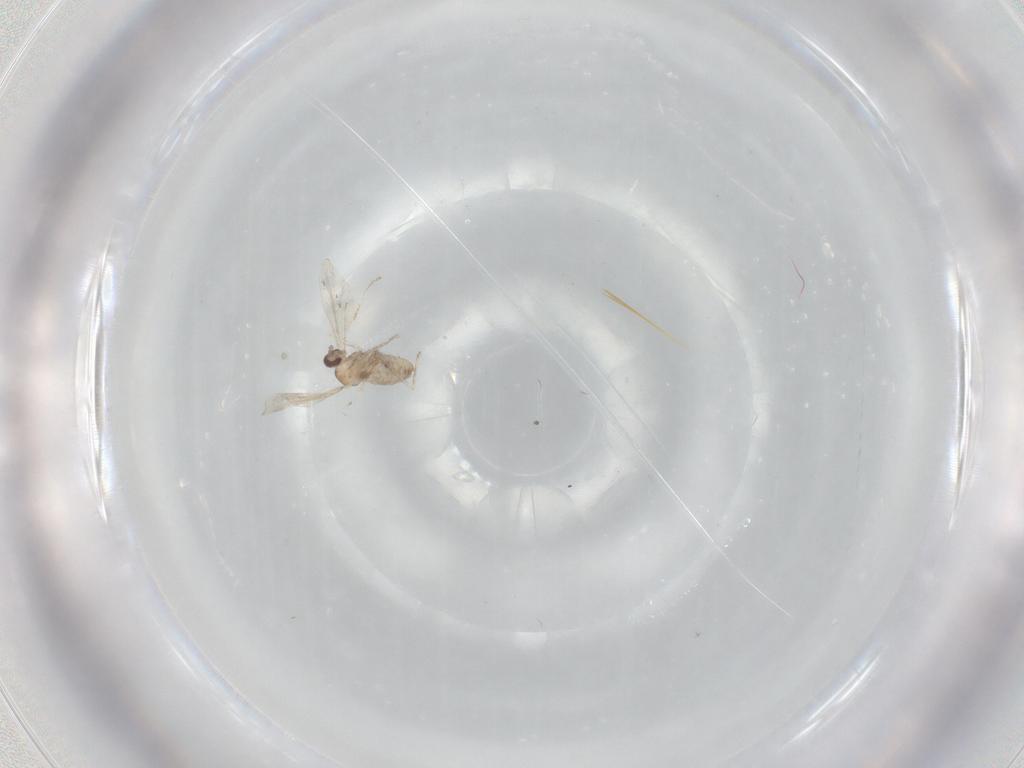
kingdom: Animalia
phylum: Arthropoda
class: Insecta
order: Diptera
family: Cecidomyiidae
